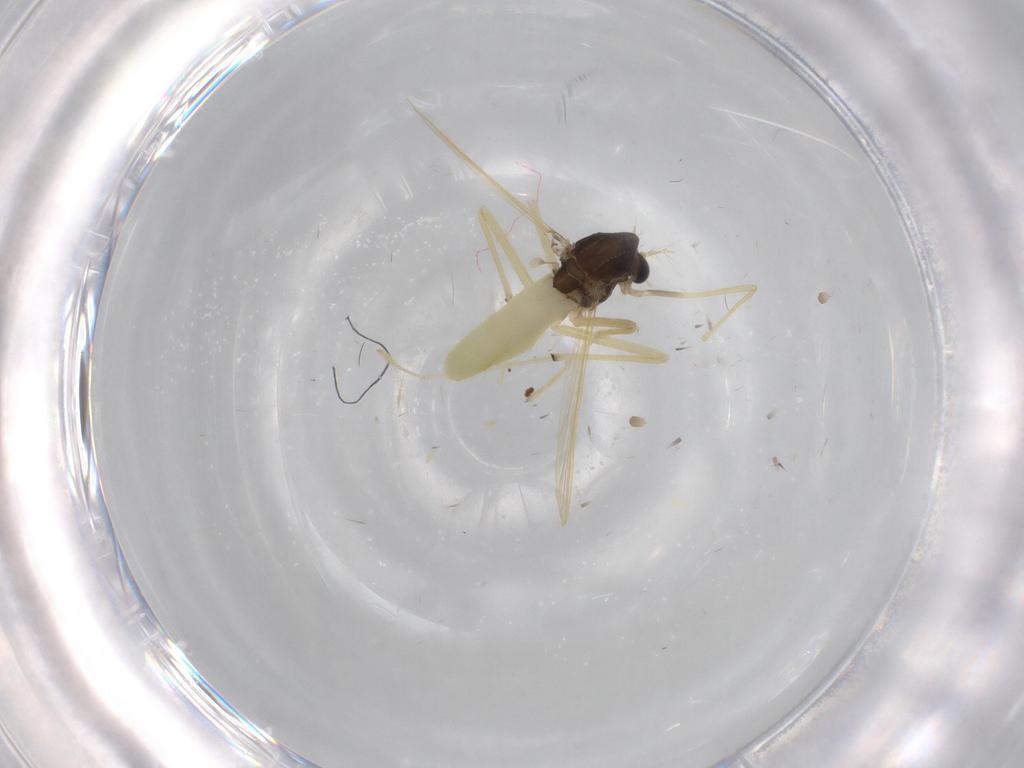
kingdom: Animalia
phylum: Arthropoda
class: Insecta
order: Diptera
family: Chironomidae
